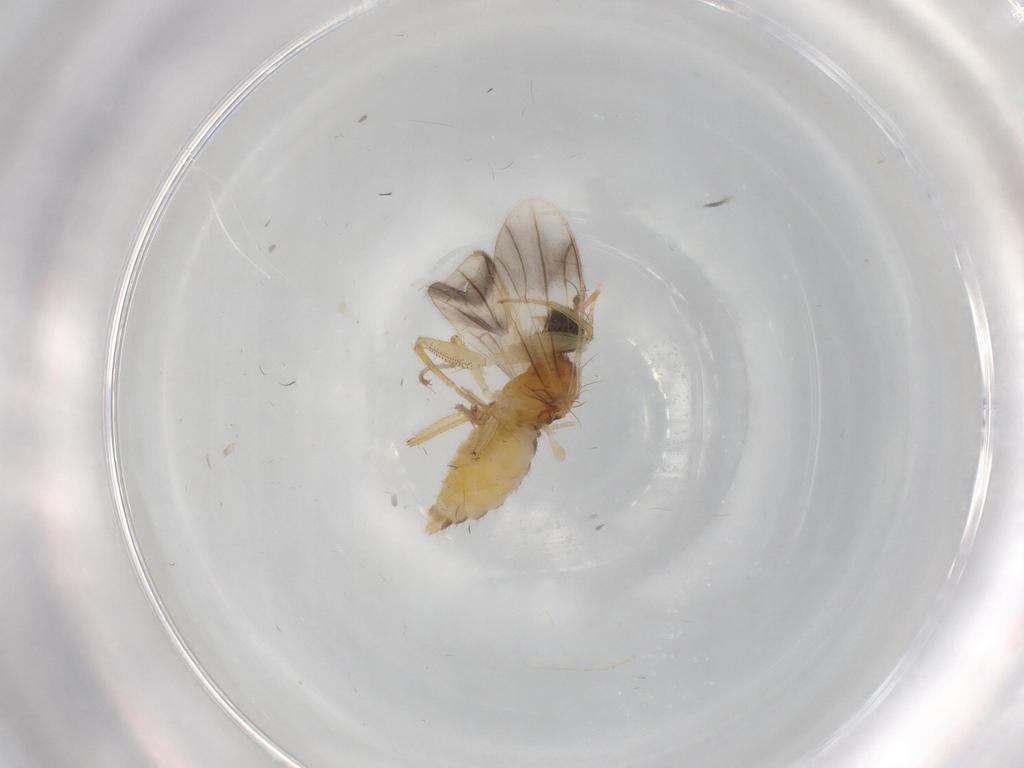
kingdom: Animalia
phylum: Arthropoda
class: Insecta
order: Diptera
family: Empididae
